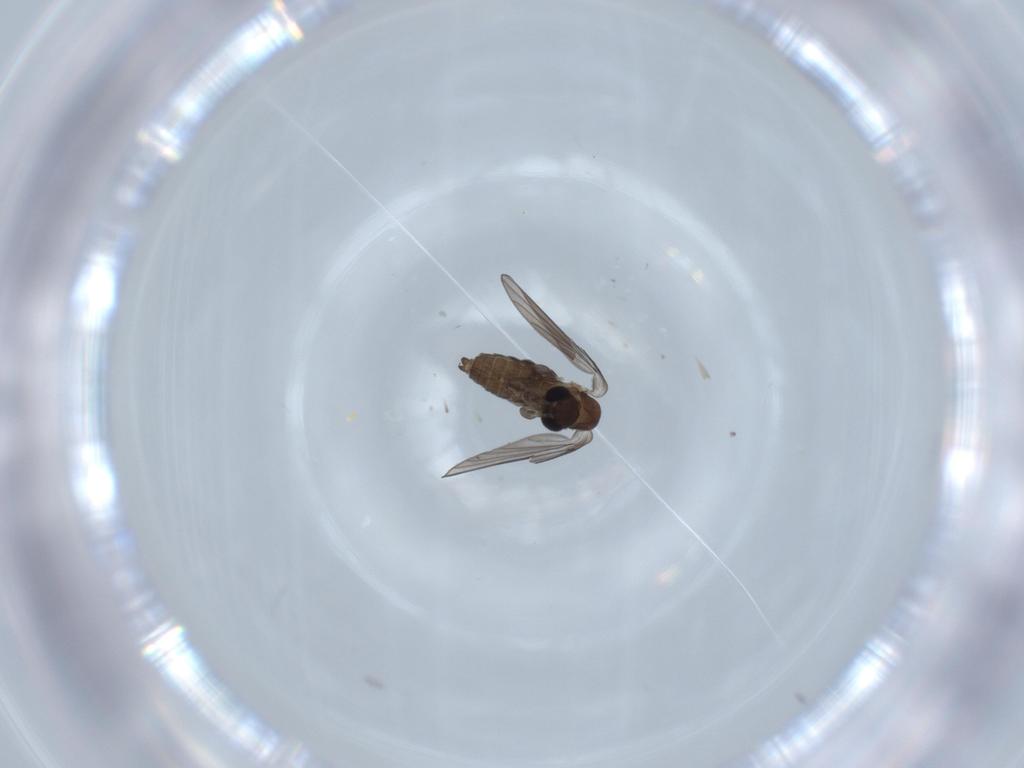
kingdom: Animalia
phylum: Arthropoda
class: Insecta
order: Diptera
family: Psychodidae
